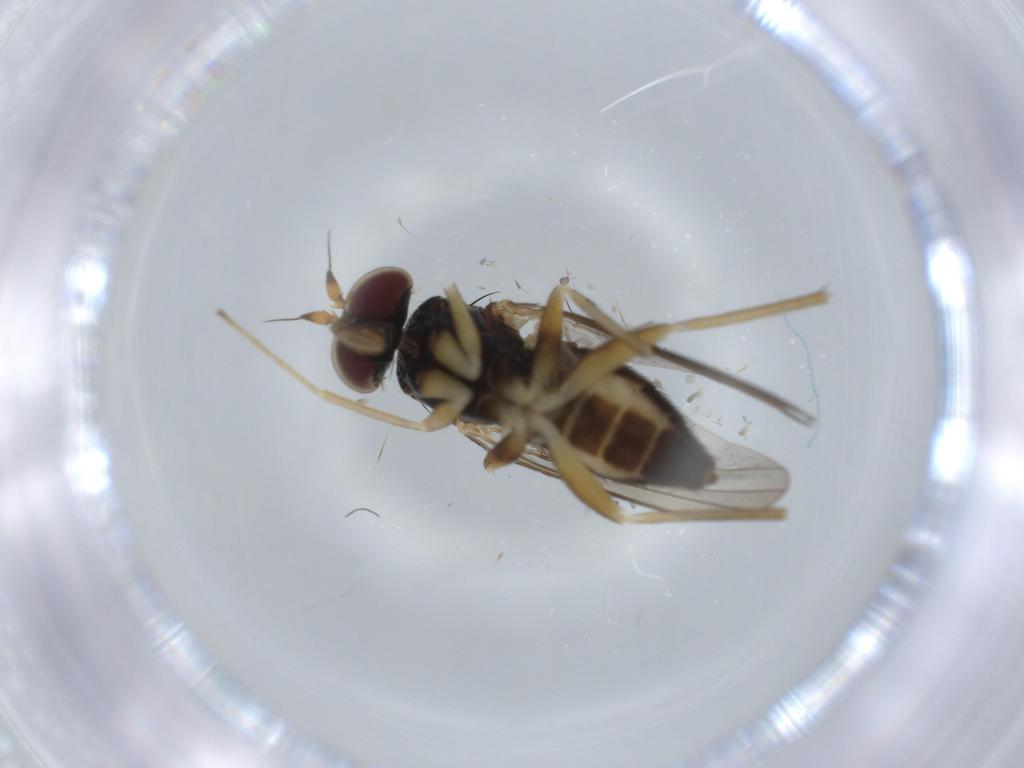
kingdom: Animalia
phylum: Arthropoda
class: Insecta
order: Diptera
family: Dolichopodidae
